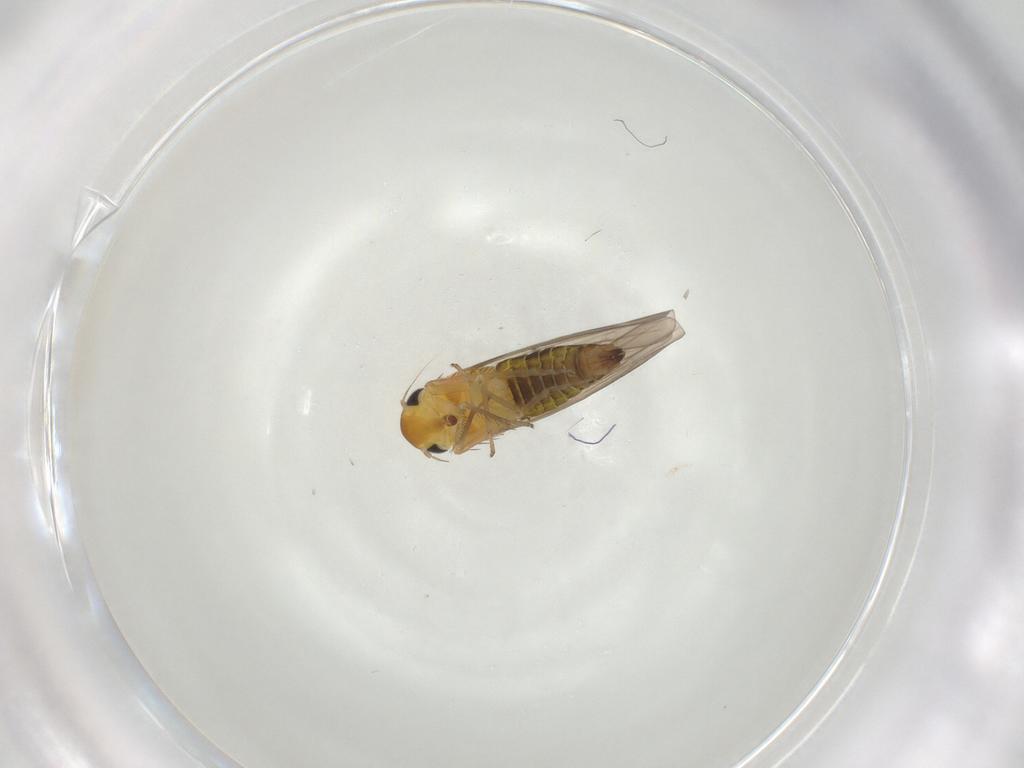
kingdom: Animalia
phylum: Arthropoda
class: Insecta
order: Hemiptera
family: Cicadellidae
